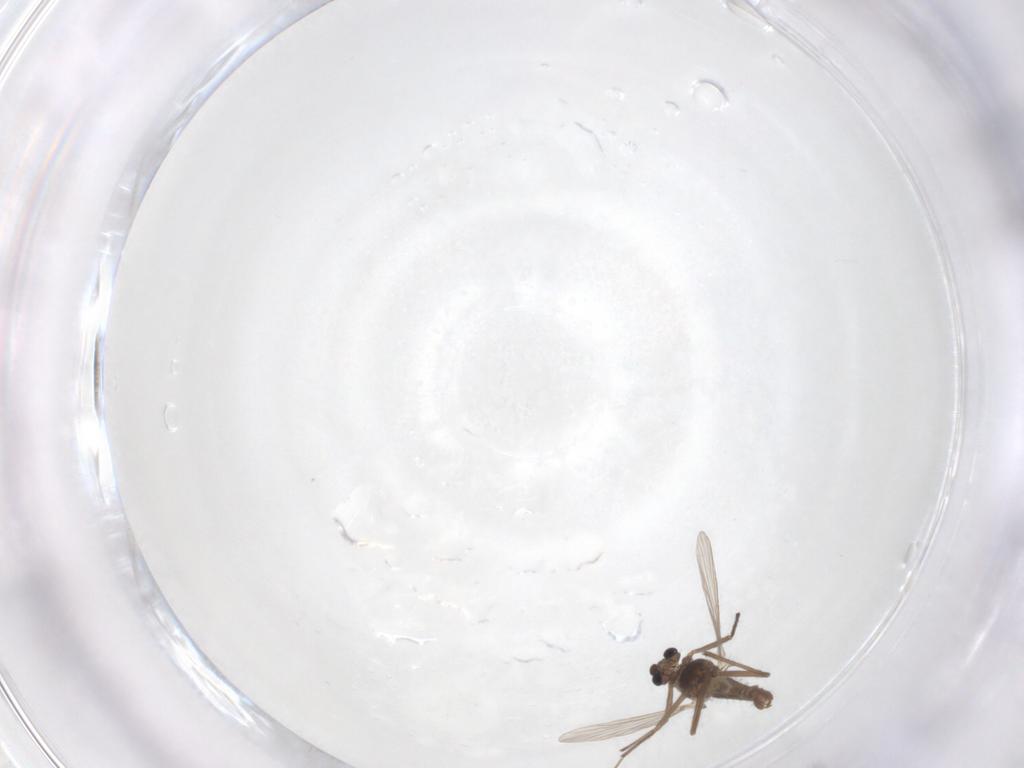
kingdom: Animalia
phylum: Arthropoda
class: Insecta
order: Diptera
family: Chironomidae
